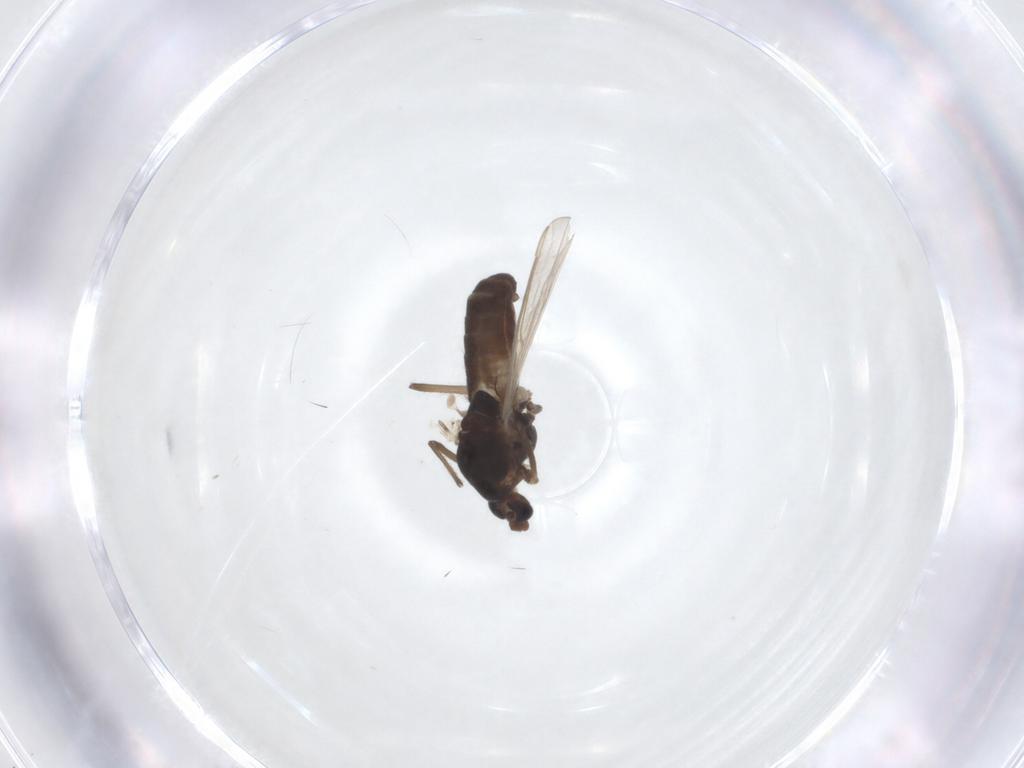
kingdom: Animalia
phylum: Arthropoda
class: Insecta
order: Diptera
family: Chironomidae
